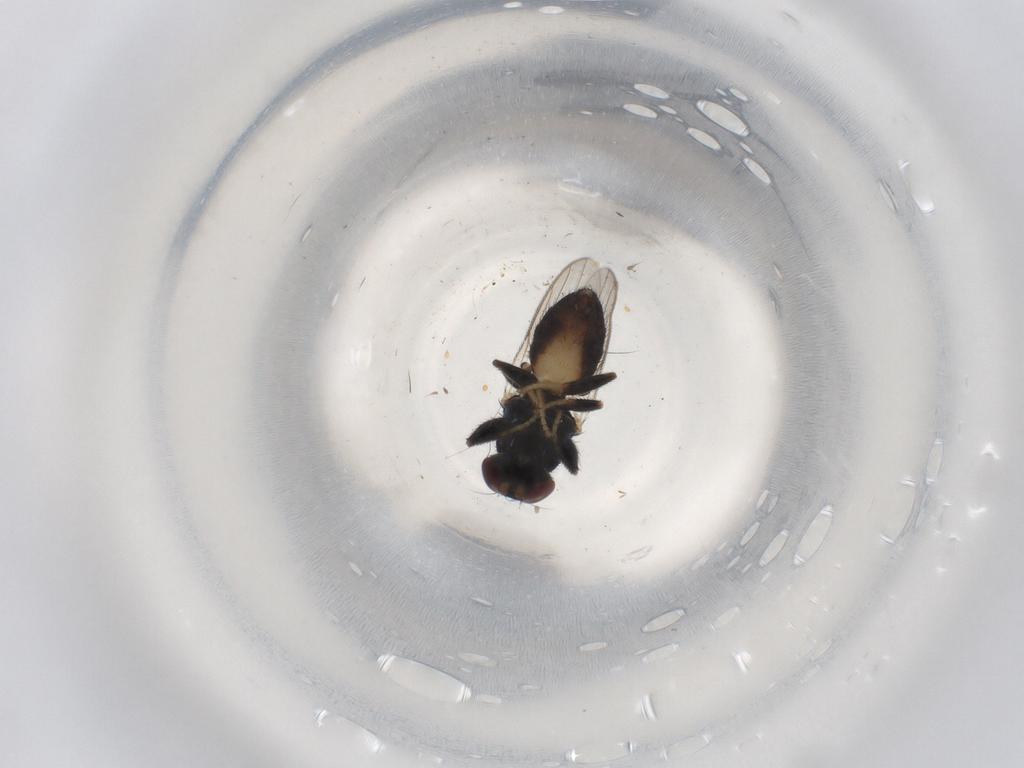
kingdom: Animalia
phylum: Arthropoda
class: Insecta
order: Diptera
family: Chloropidae
